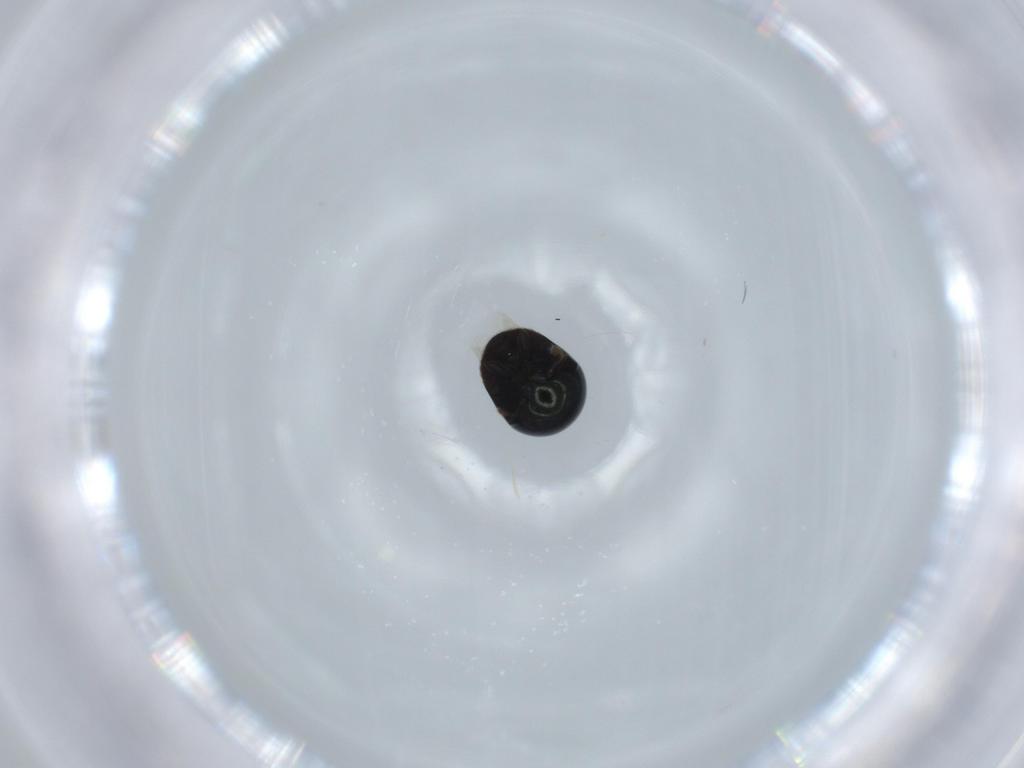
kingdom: Animalia
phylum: Arthropoda
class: Insecta
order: Coleoptera
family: Cybocephalidae
